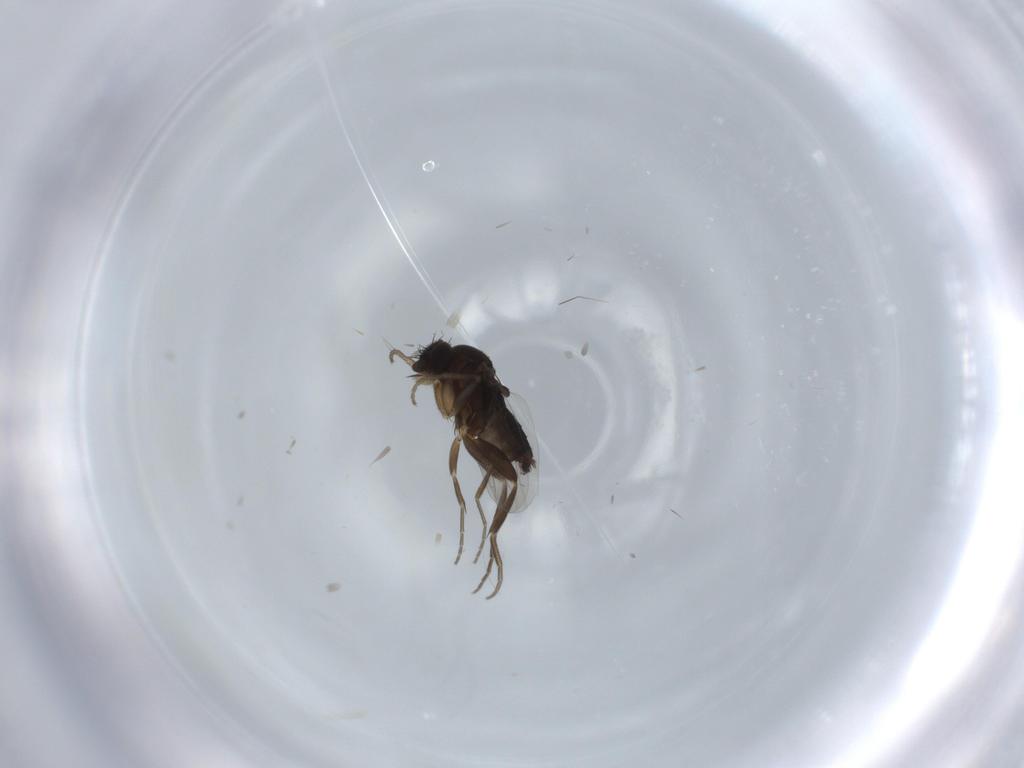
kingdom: Animalia
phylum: Arthropoda
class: Insecta
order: Diptera
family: Phoridae
